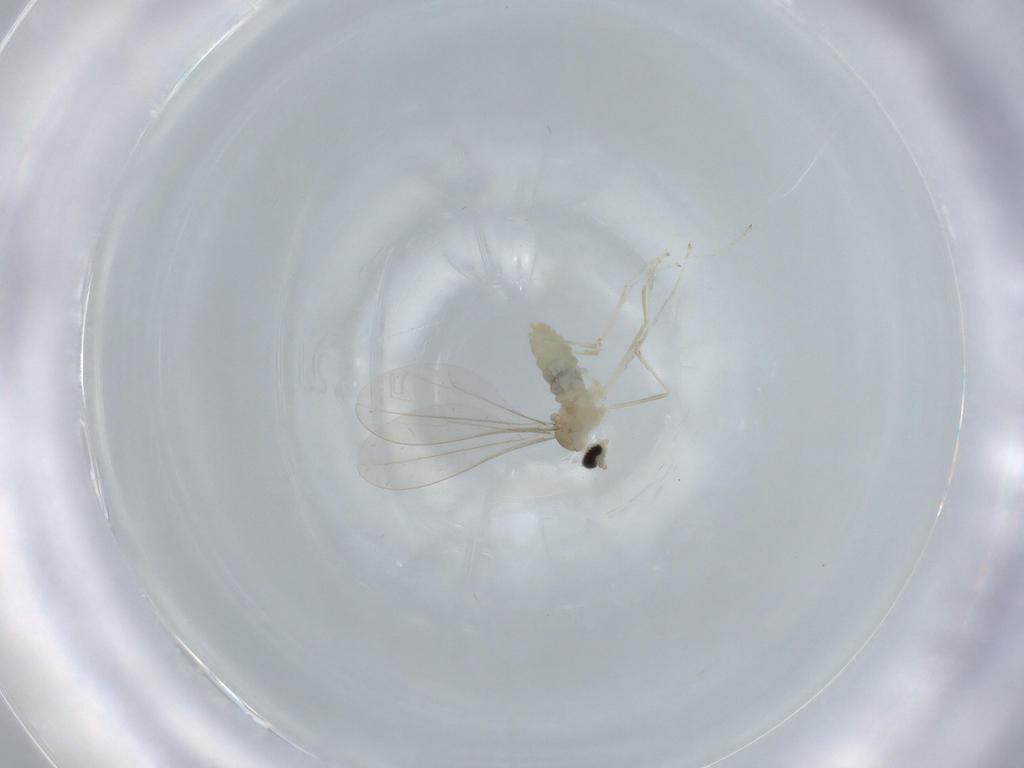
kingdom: Animalia
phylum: Arthropoda
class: Insecta
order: Diptera
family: Cecidomyiidae
